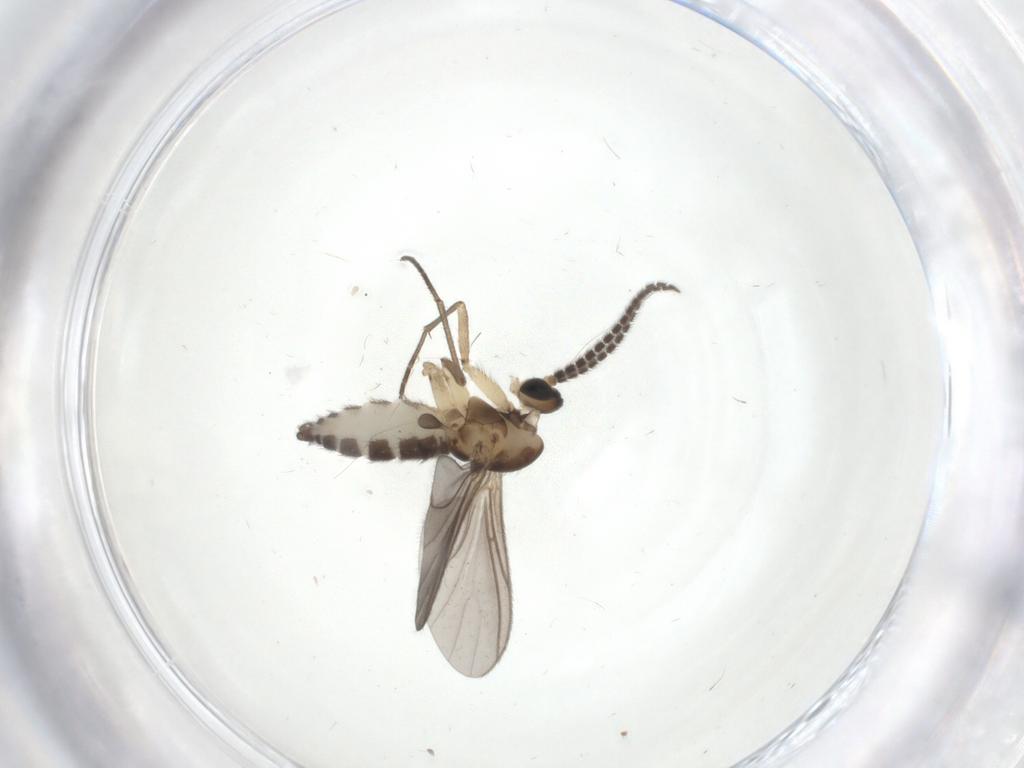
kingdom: Animalia
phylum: Arthropoda
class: Insecta
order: Diptera
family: Sciaridae
